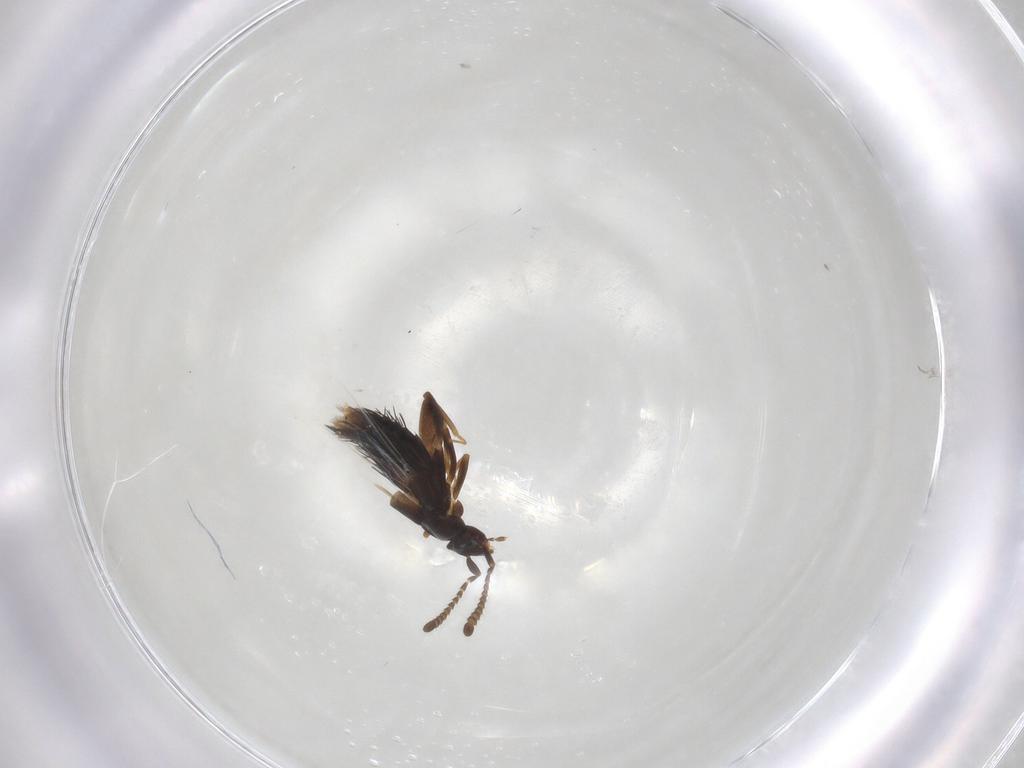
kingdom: Animalia
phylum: Arthropoda
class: Insecta
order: Coleoptera
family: Staphylinidae
